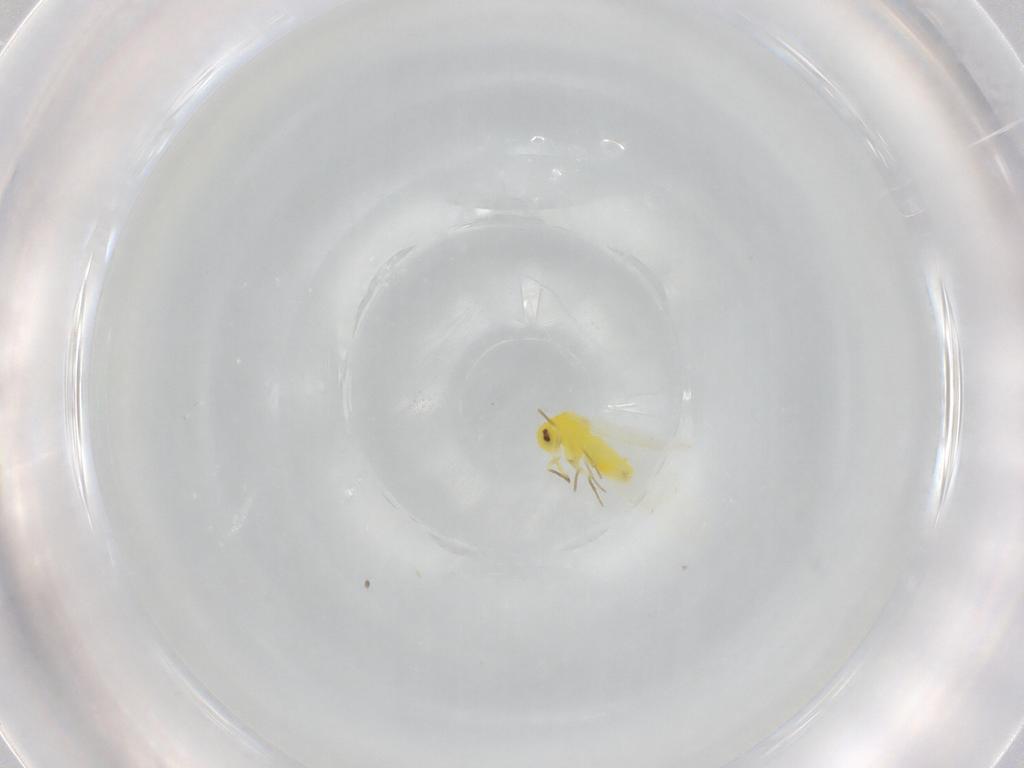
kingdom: Animalia
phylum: Arthropoda
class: Insecta
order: Hemiptera
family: Aleyrodidae
